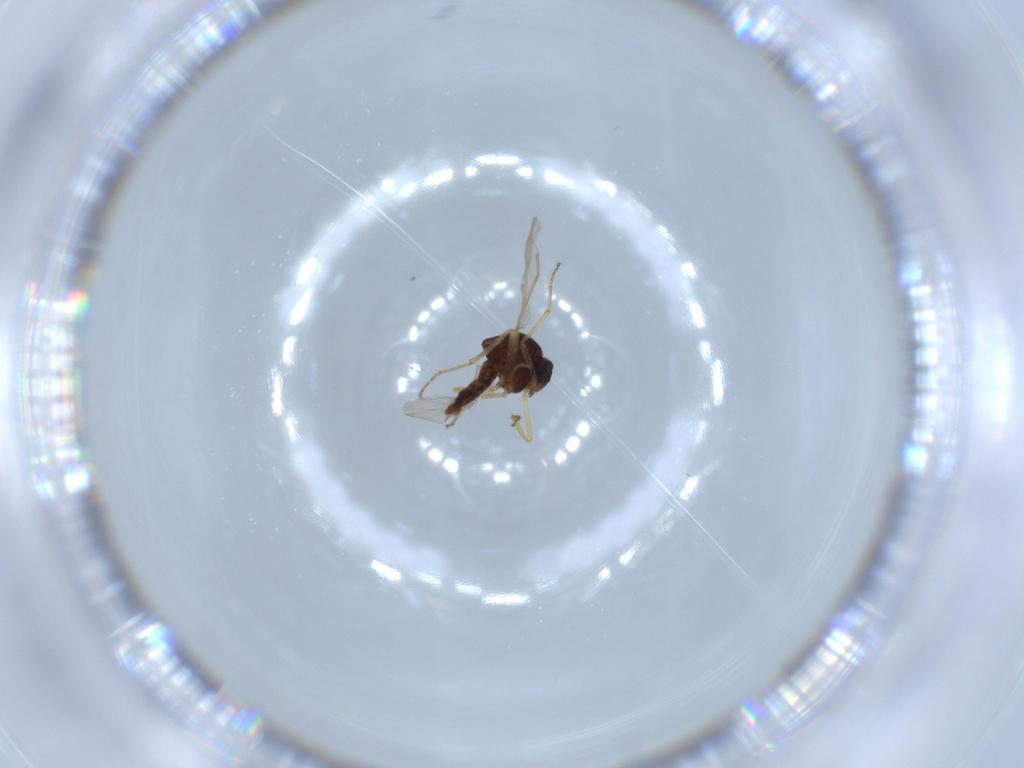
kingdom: Animalia
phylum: Arthropoda
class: Insecta
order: Diptera
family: Ceratopogonidae
